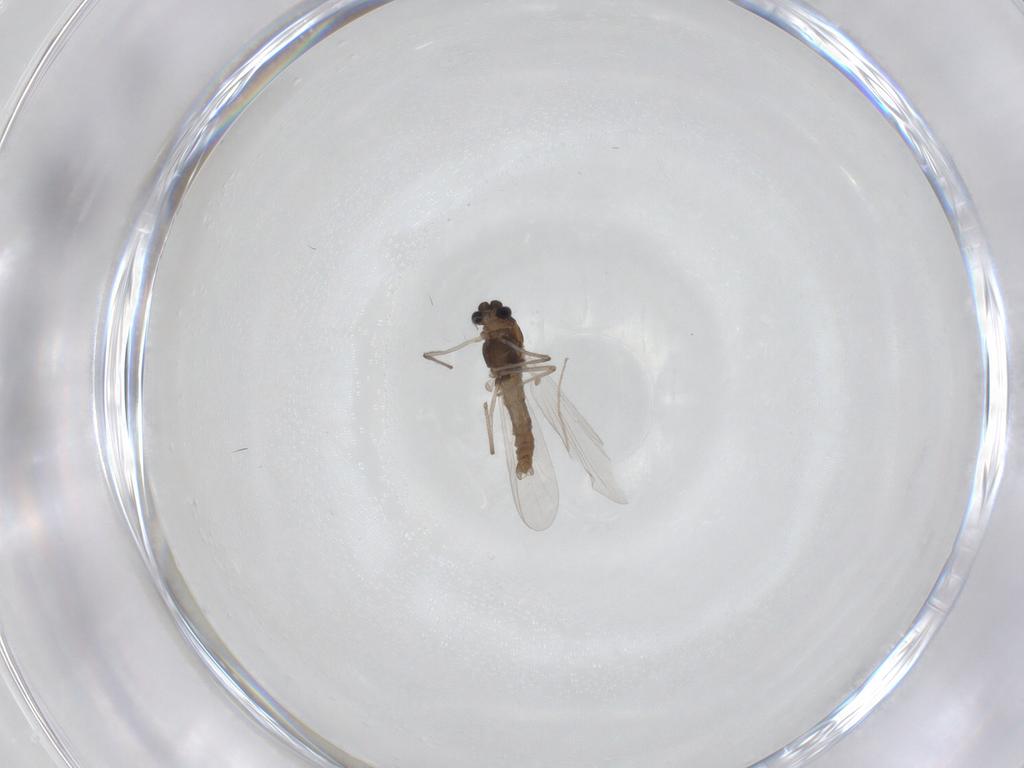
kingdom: Animalia
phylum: Arthropoda
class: Insecta
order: Diptera
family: Chironomidae
